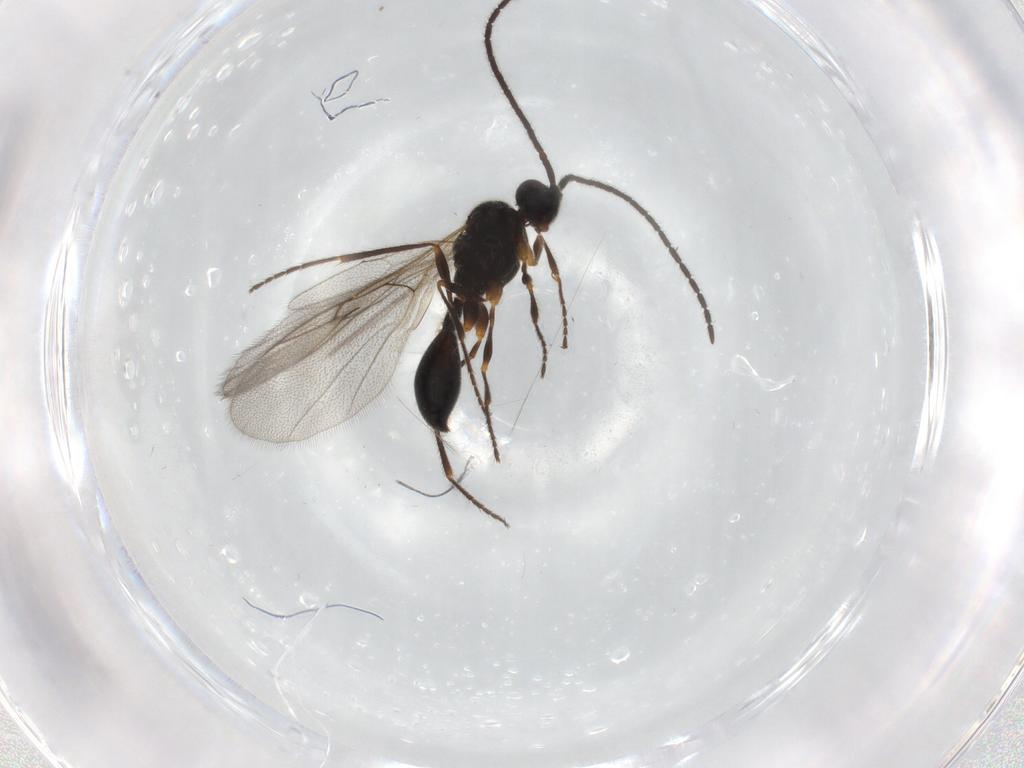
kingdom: Animalia
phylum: Arthropoda
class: Insecta
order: Hymenoptera
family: Diapriidae
